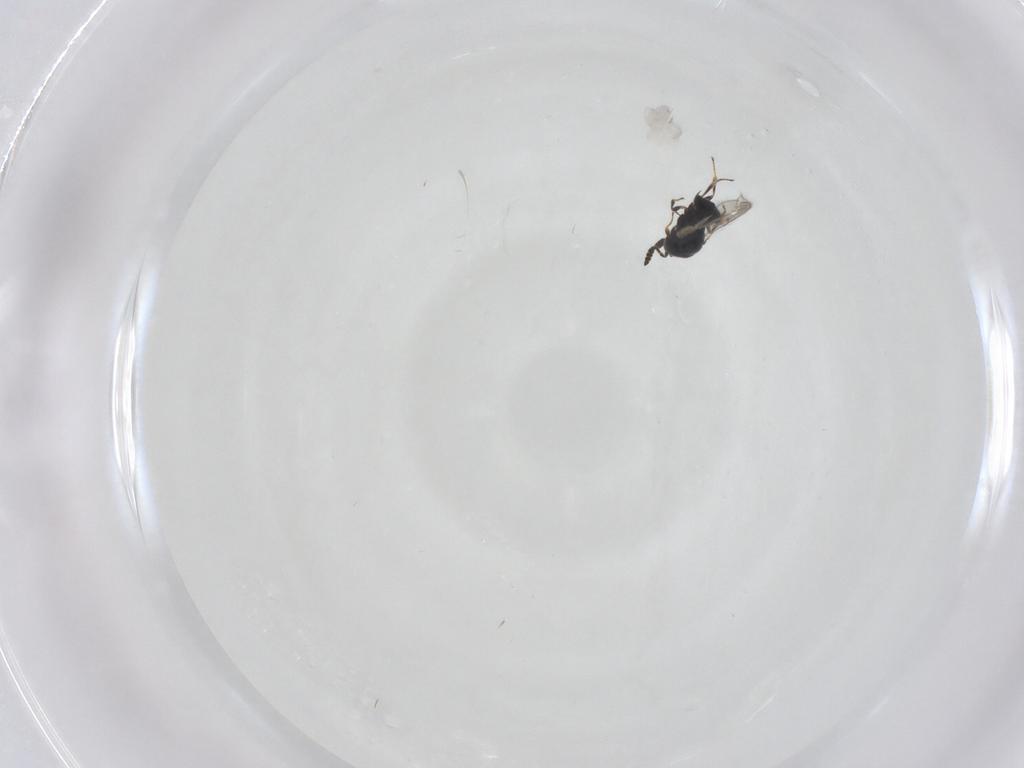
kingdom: Animalia
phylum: Arthropoda
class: Insecta
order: Hymenoptera
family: Scelionidae
